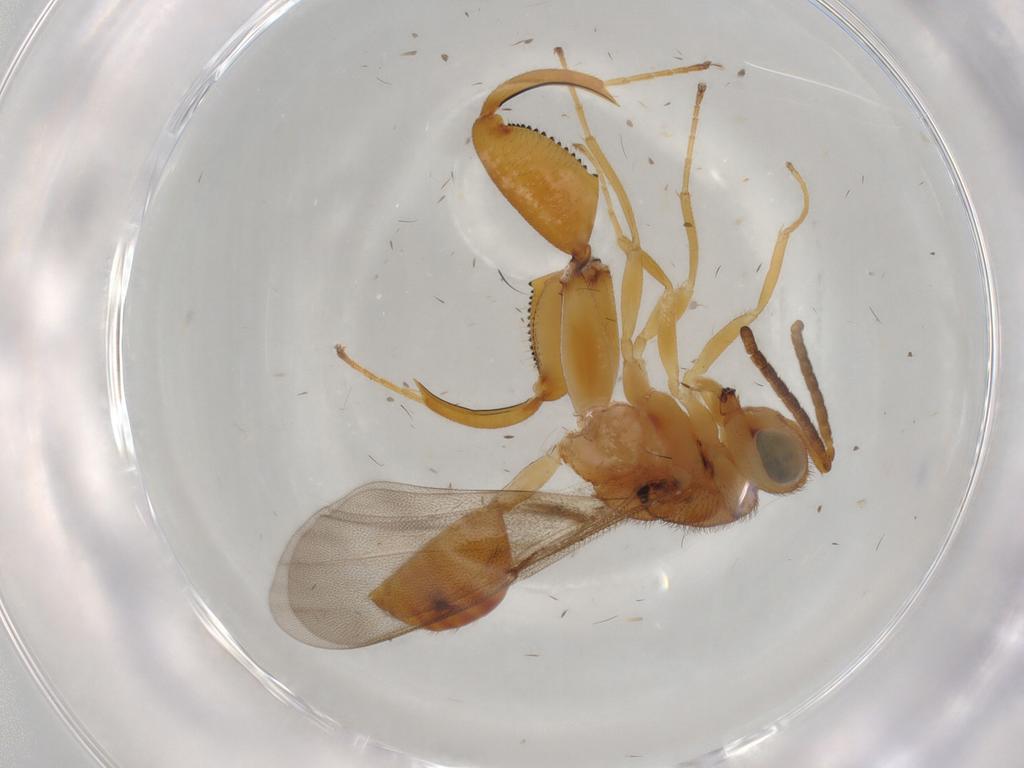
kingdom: Animalia
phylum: Arthropoda
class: Insecta
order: Hymenoptera
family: Chalcididae
